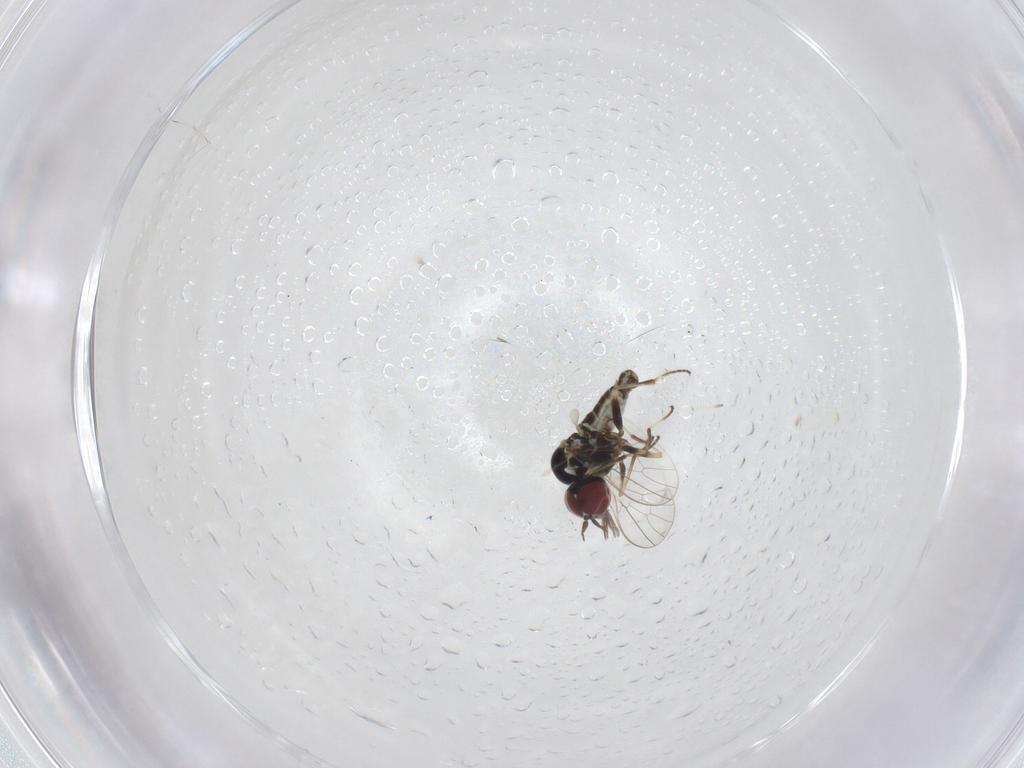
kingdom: Animalia
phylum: Arthropoda
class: Insecta
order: Diptera
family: Bombyliidae
